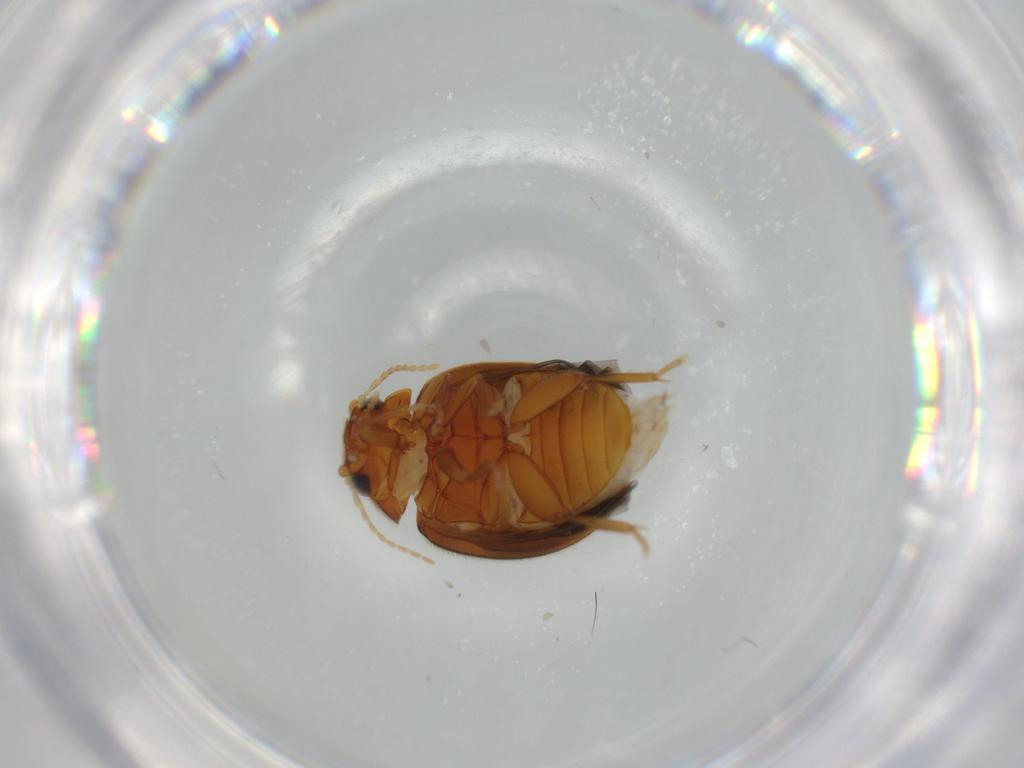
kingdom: Animalia
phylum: Arthropoda
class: Insecta
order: Coleoptera
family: Scirtidae
